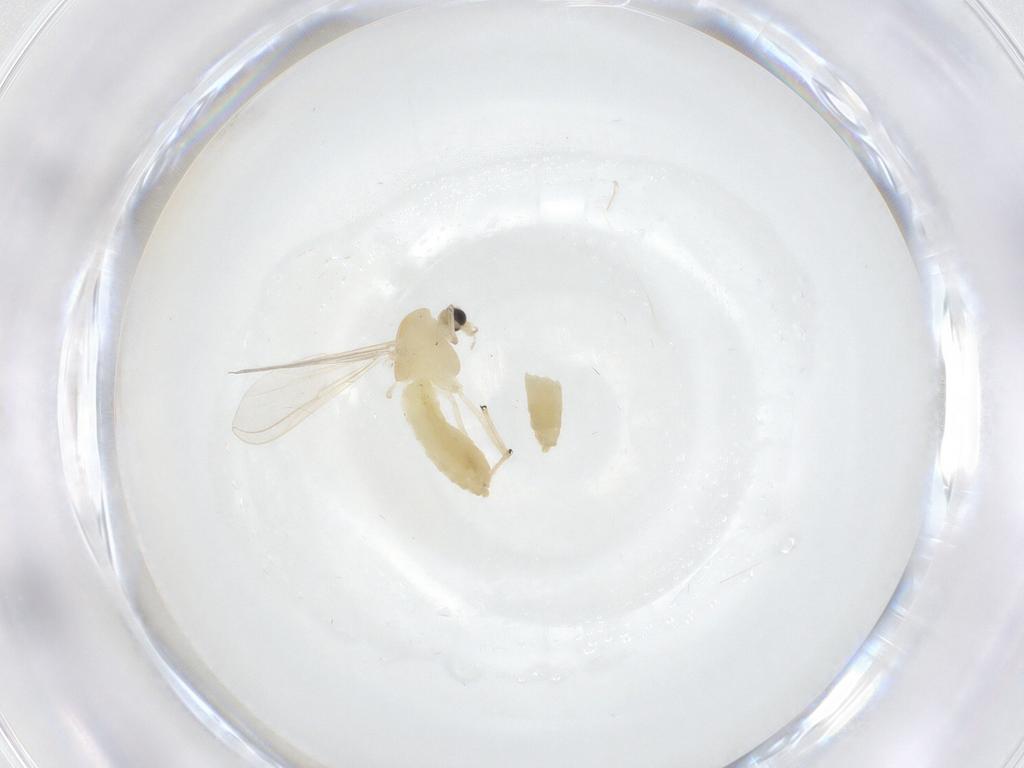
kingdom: Animalia
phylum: Arthropoda
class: Insecta
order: Diptera
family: Chironomidae
